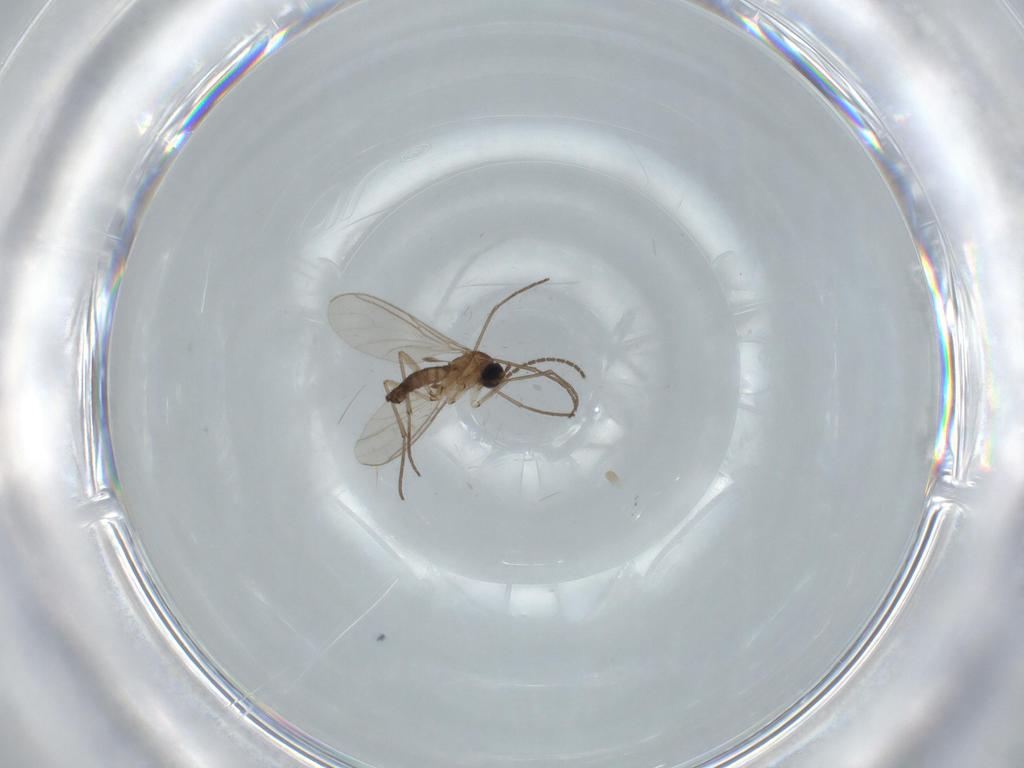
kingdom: Animalia
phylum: Arthropoda
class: Insecta
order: Diptera
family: Sciaridae
